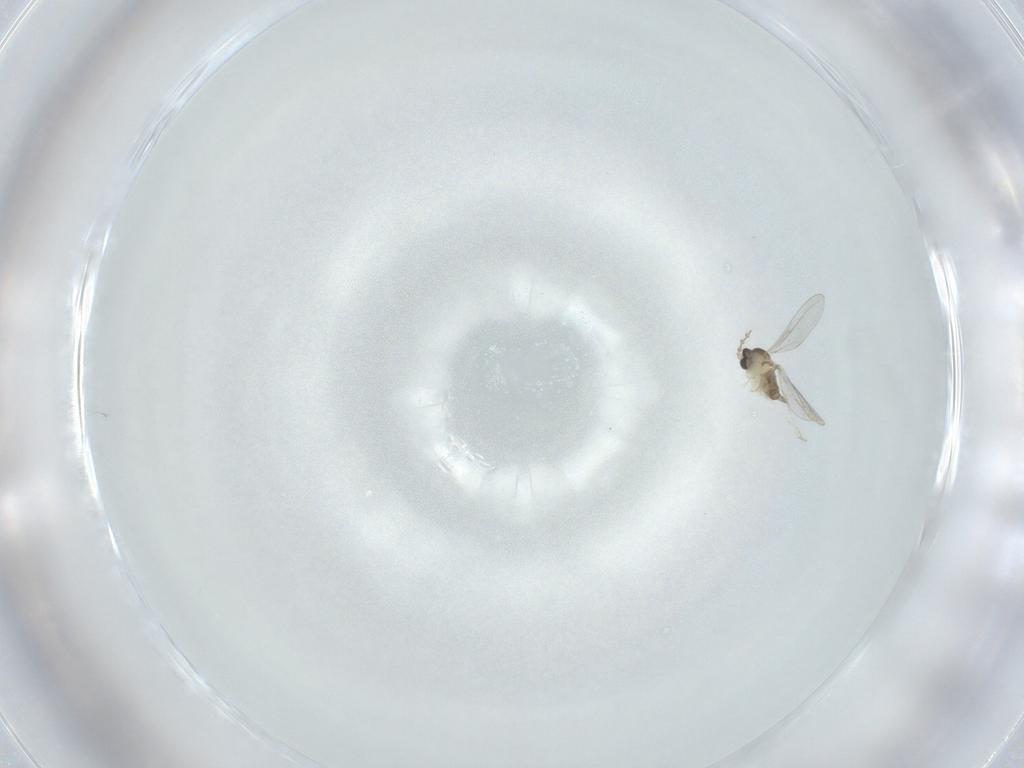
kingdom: Animalia
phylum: Arthropoda
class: Insecta
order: Diptera
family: Cecidomyiidae
